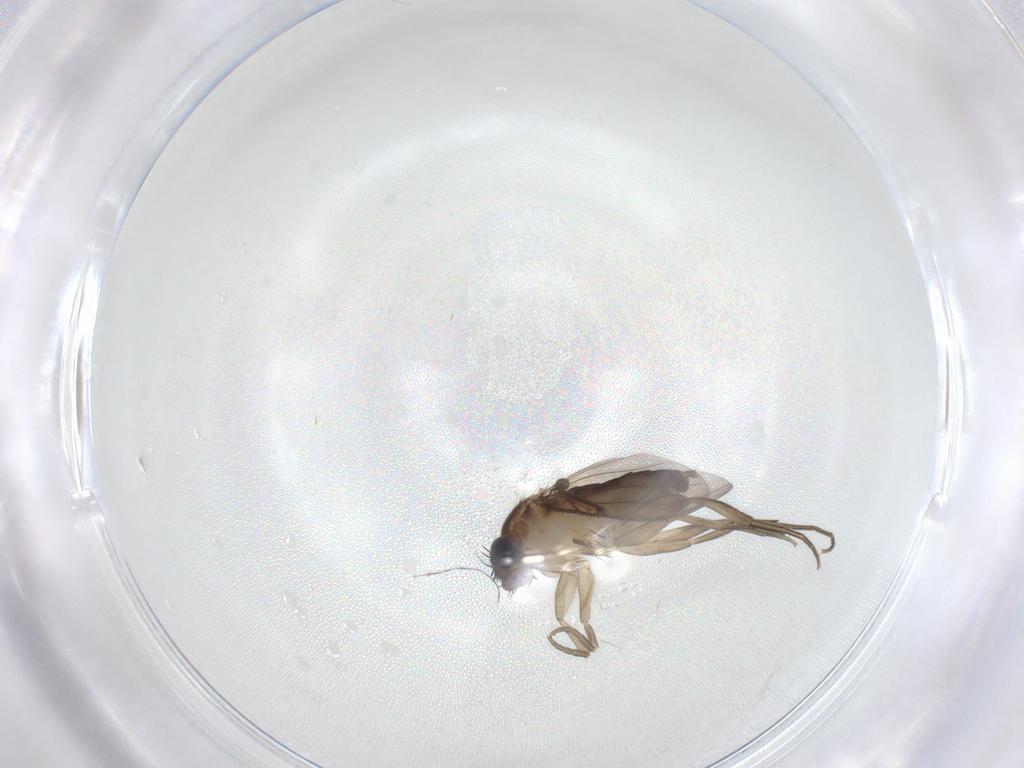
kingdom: Animalia
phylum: Arthropoda
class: Insecta
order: Diptera
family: Phoridae
